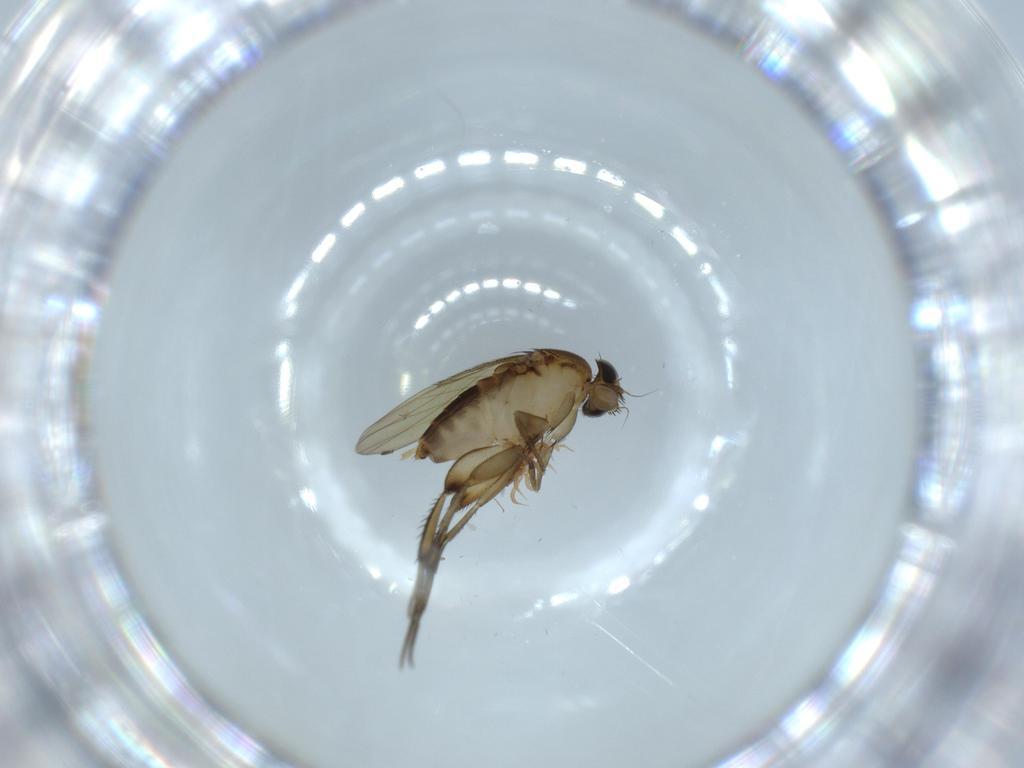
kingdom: Animalia
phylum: Arthropoda
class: Insecta
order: Diptera
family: Phoridae
